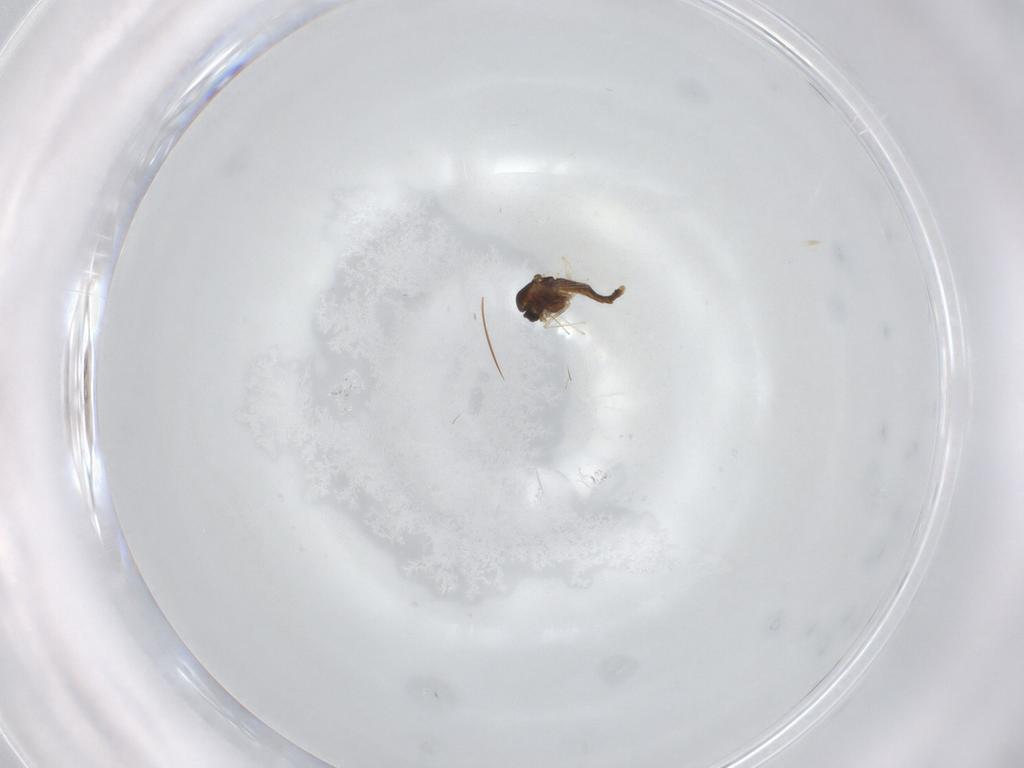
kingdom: Animalia
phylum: Arthropoda
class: Insecta
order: Diptera
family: Chironomidae
